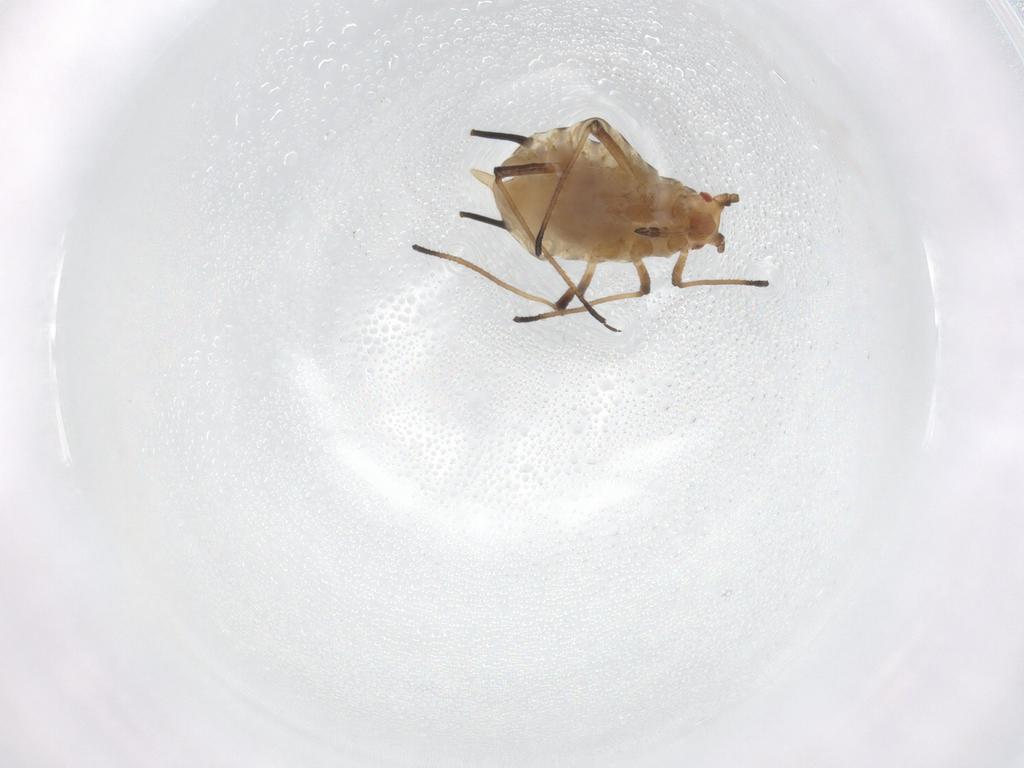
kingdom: Animalia
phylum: Arthropoda
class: Insecta
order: Hemiptera
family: Aphididae
